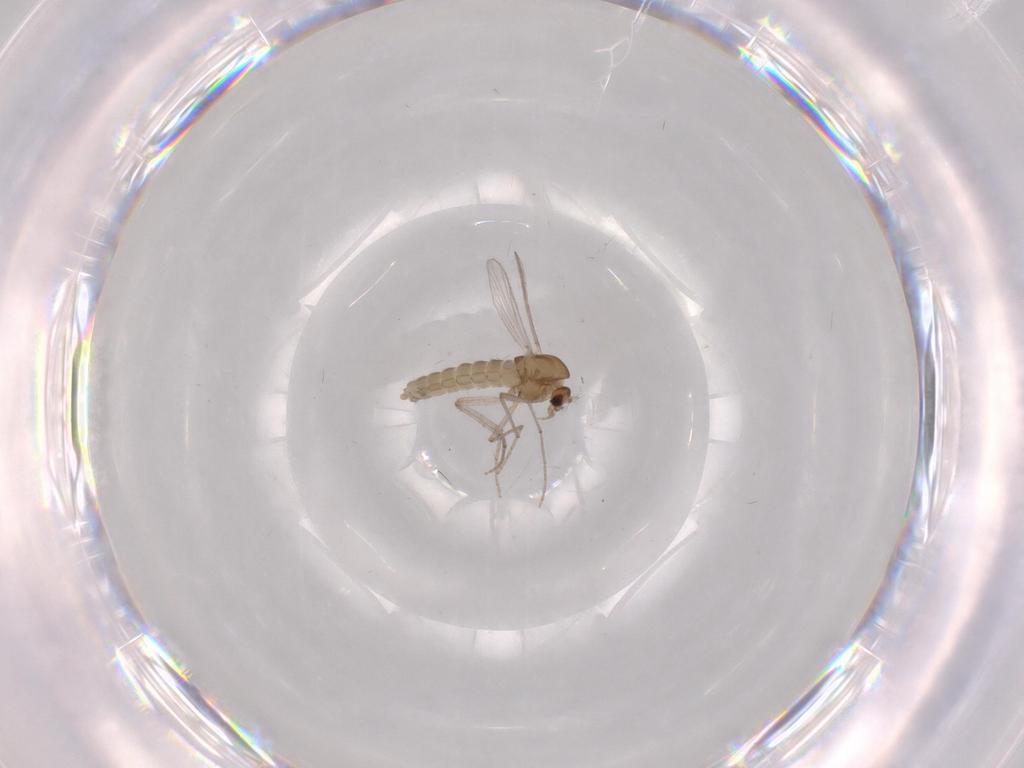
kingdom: Animalia
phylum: Arthropoda
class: Insecta
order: Diptera
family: Chironomidae
